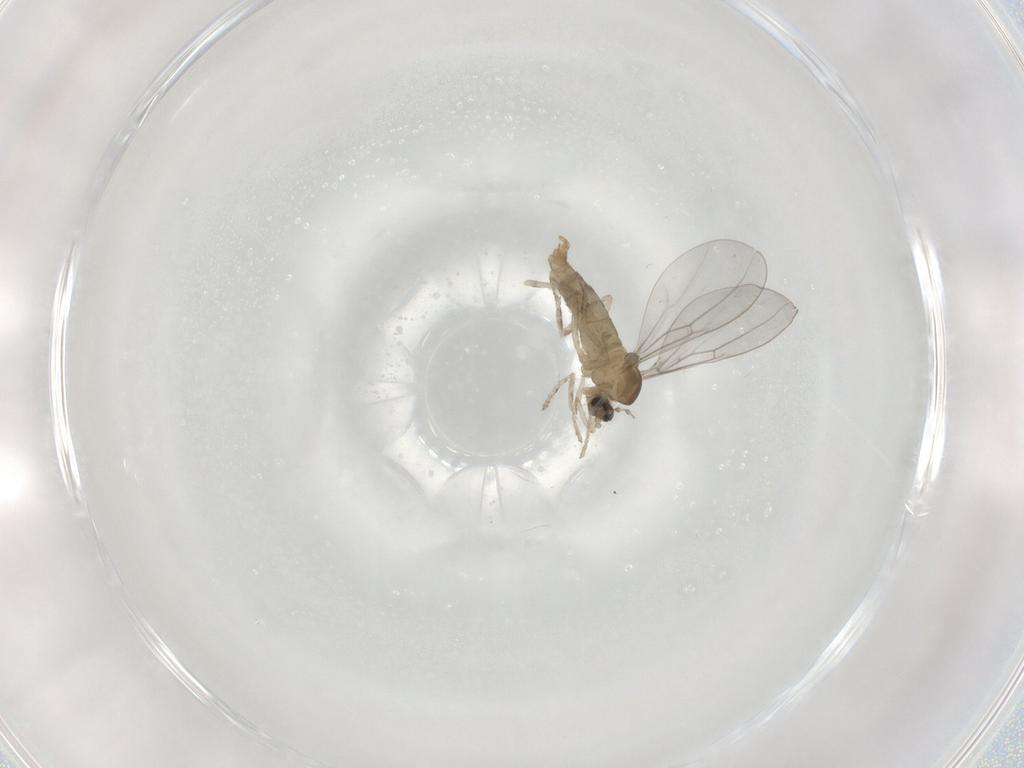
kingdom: Animalia
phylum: Arthropoda
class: Insecta
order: Diptera
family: Cecidomyiidae
